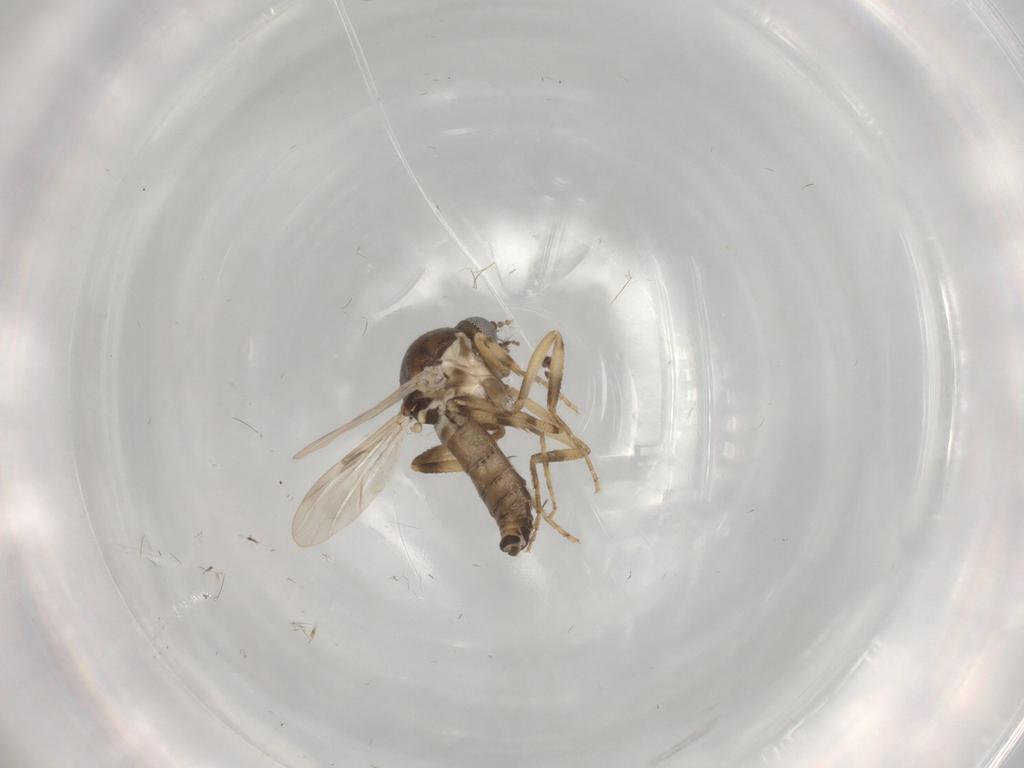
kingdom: Animalia
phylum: Arthropoda
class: Insecta
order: Diptera
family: Ceratopogonidae
